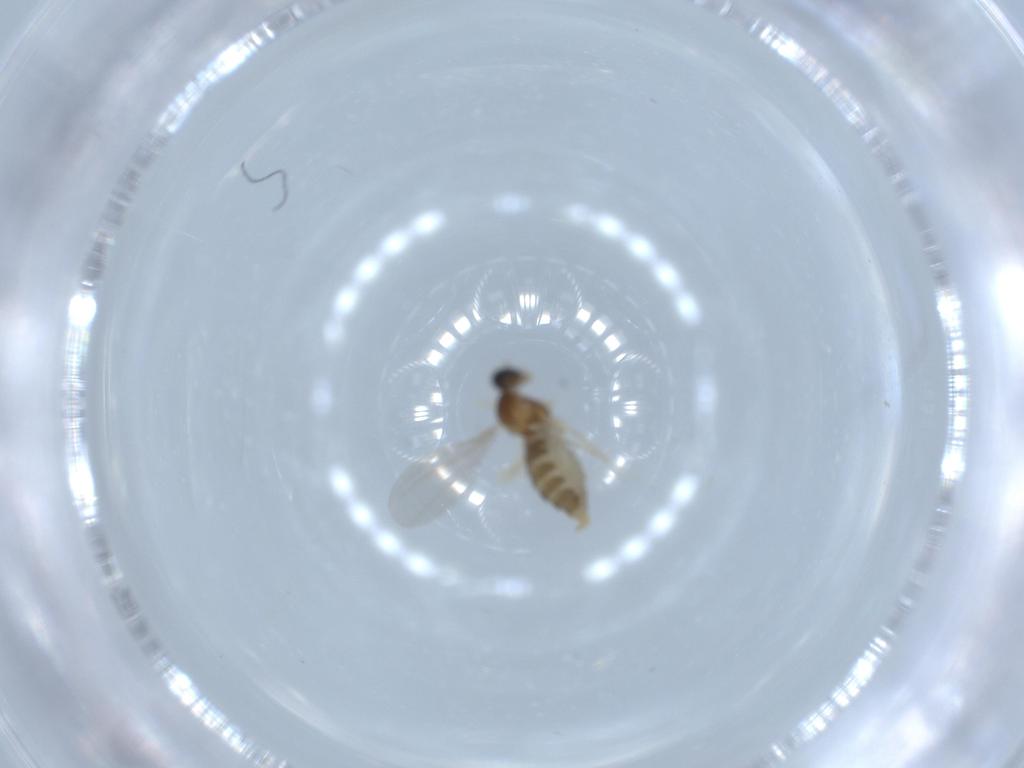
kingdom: Animalia
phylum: Arthropoda
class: Insecta
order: Diptera
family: Cecidomyiidae
